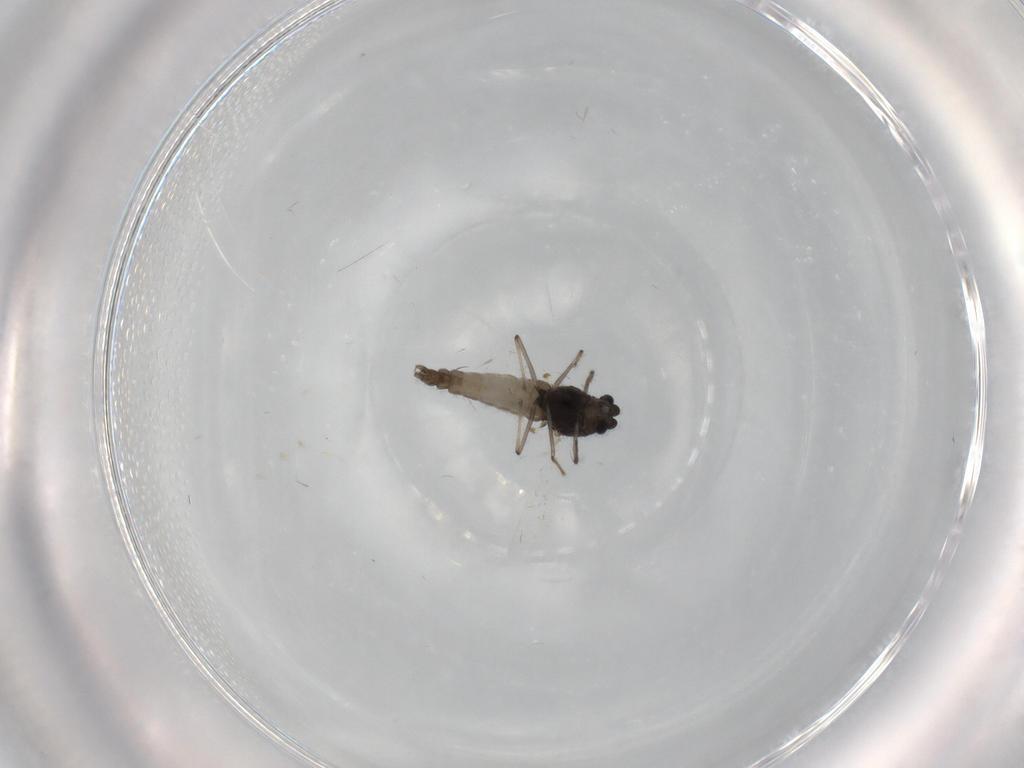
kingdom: Animalia
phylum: Arthropoda
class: Insecta
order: Diptera
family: Chironomidae
